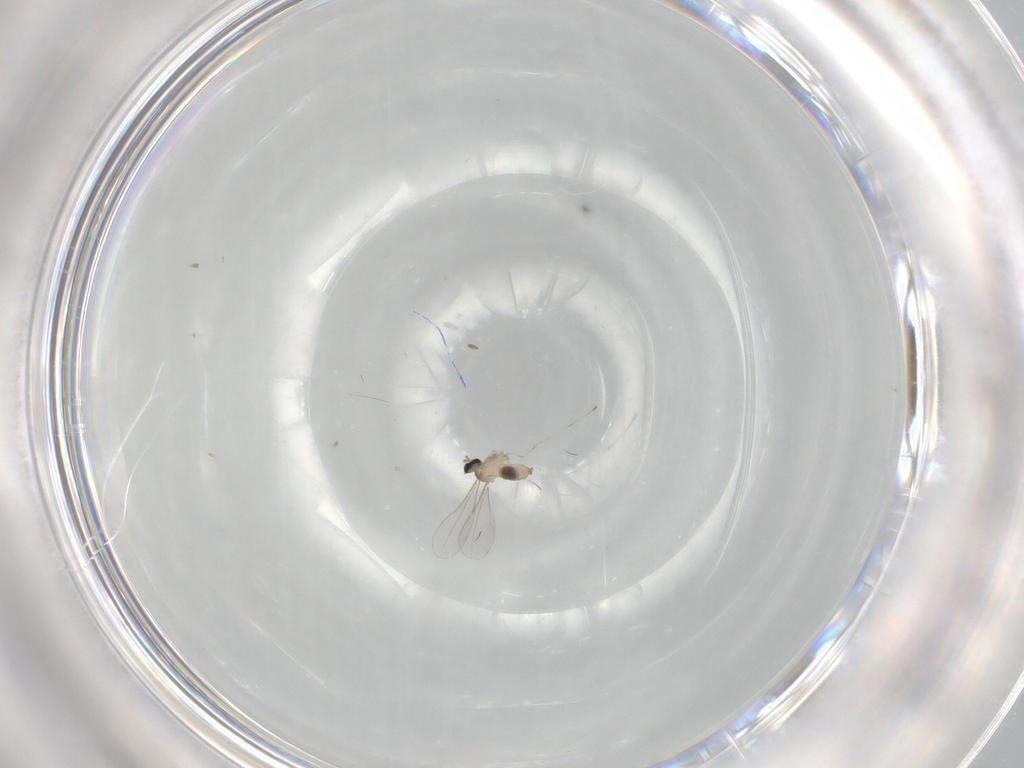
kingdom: Animalia
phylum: Arthropoda
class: Insecta
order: Diptera
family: Cecidomyiidae
